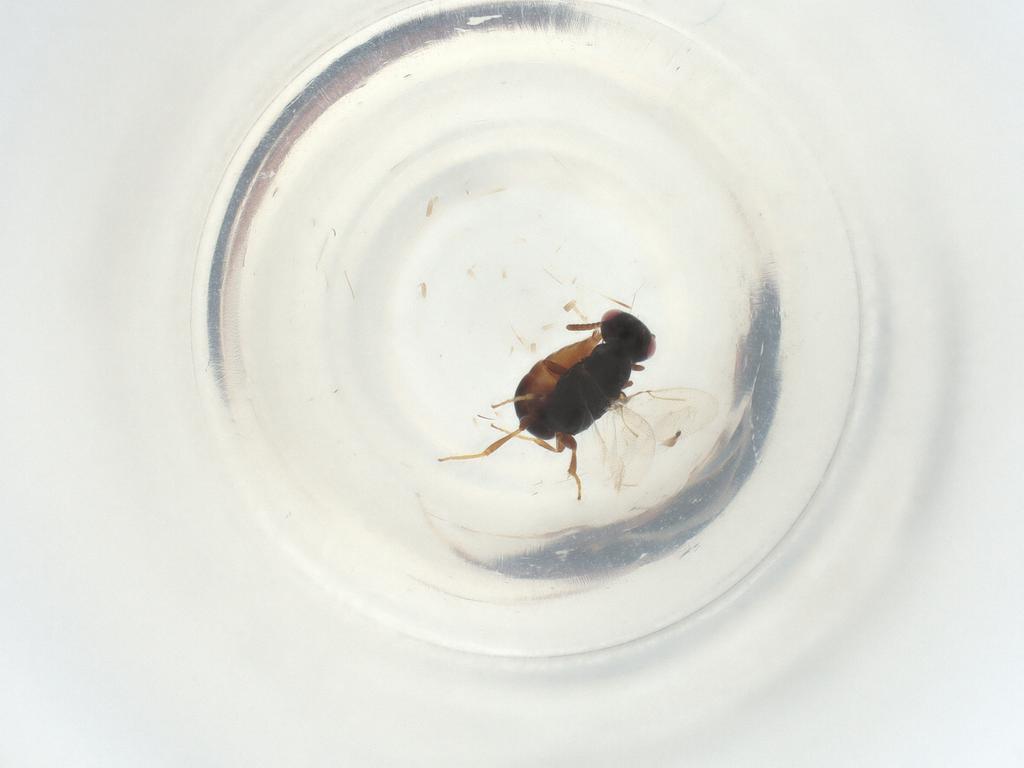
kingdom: Animalia
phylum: Arthropoda
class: Insecta
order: Hymenoptera
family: Bethylidae
